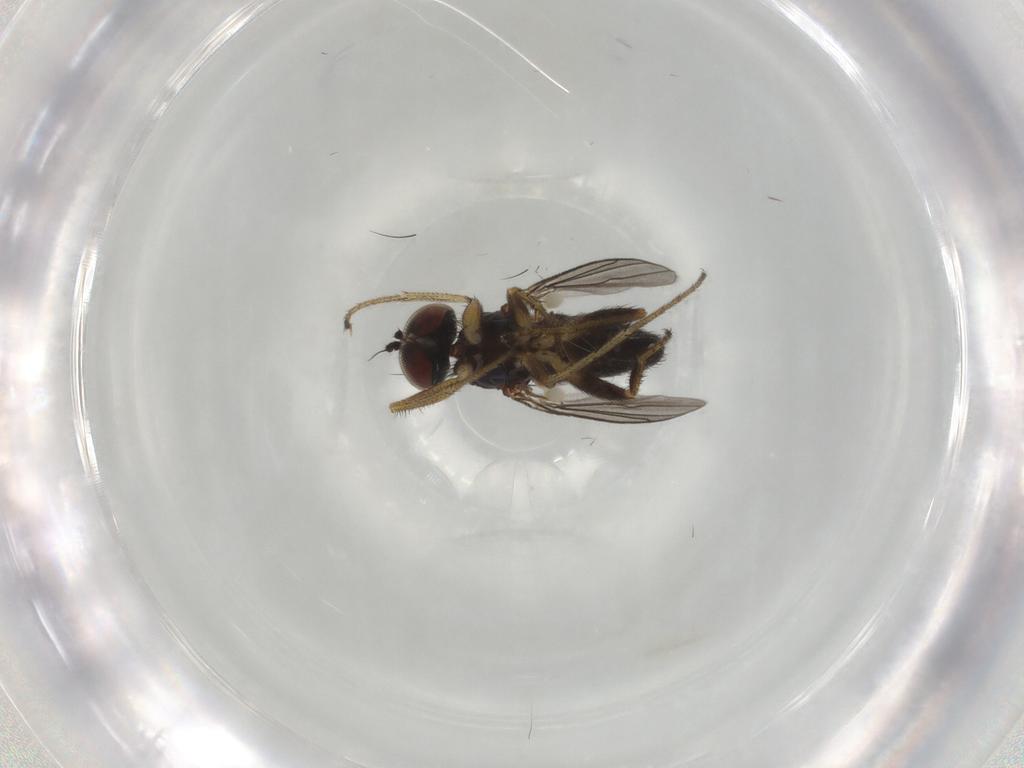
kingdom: Animalia
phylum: Arthropoda
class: Insecta
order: Diptera
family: Dolichopodidae
